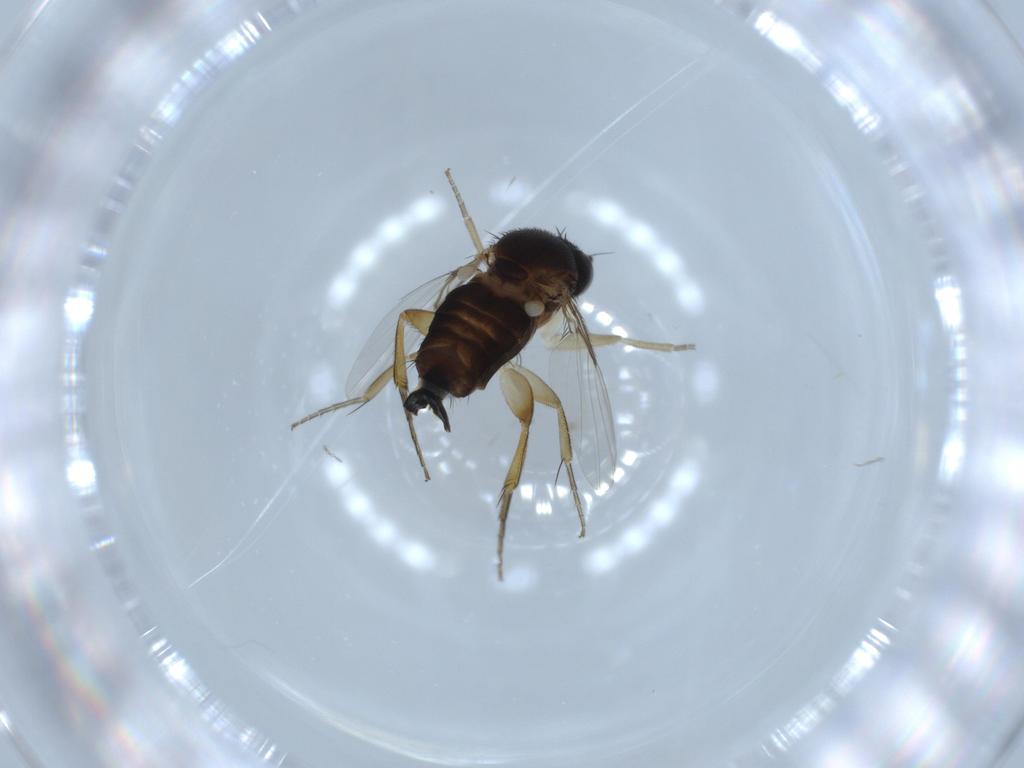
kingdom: Animalia
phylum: Arthropoda
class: Insecta
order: Diptera
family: Phoridae
